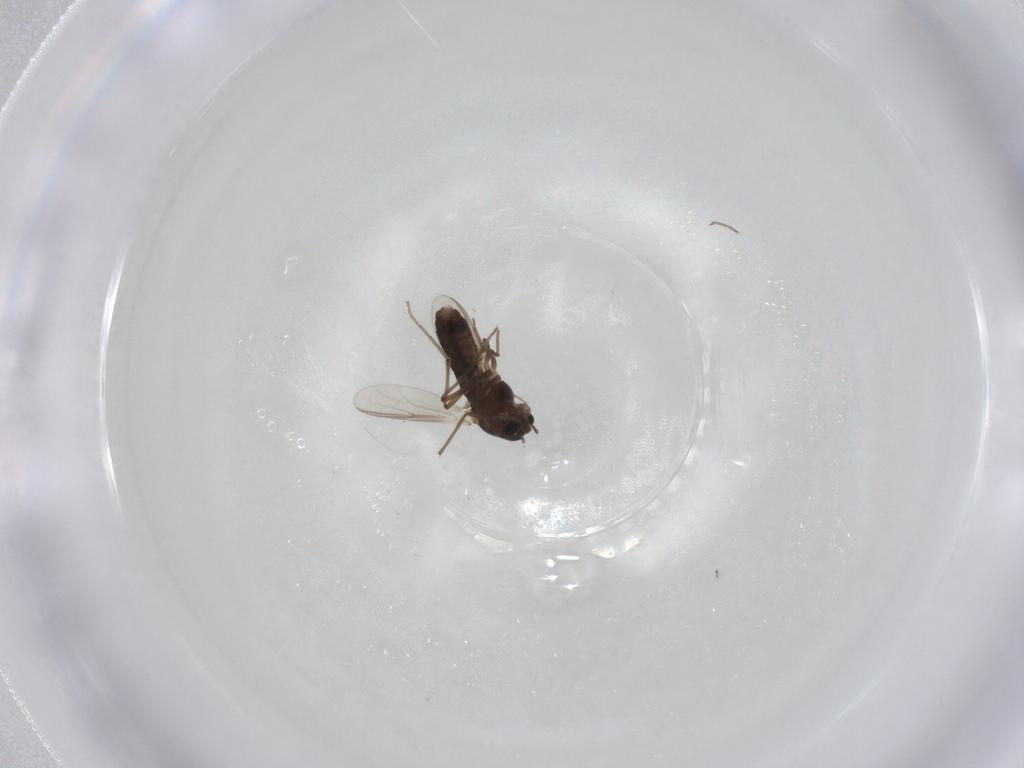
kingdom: Animalia
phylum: Arthropoda
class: Insecta
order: Diptera
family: Chironomidae
